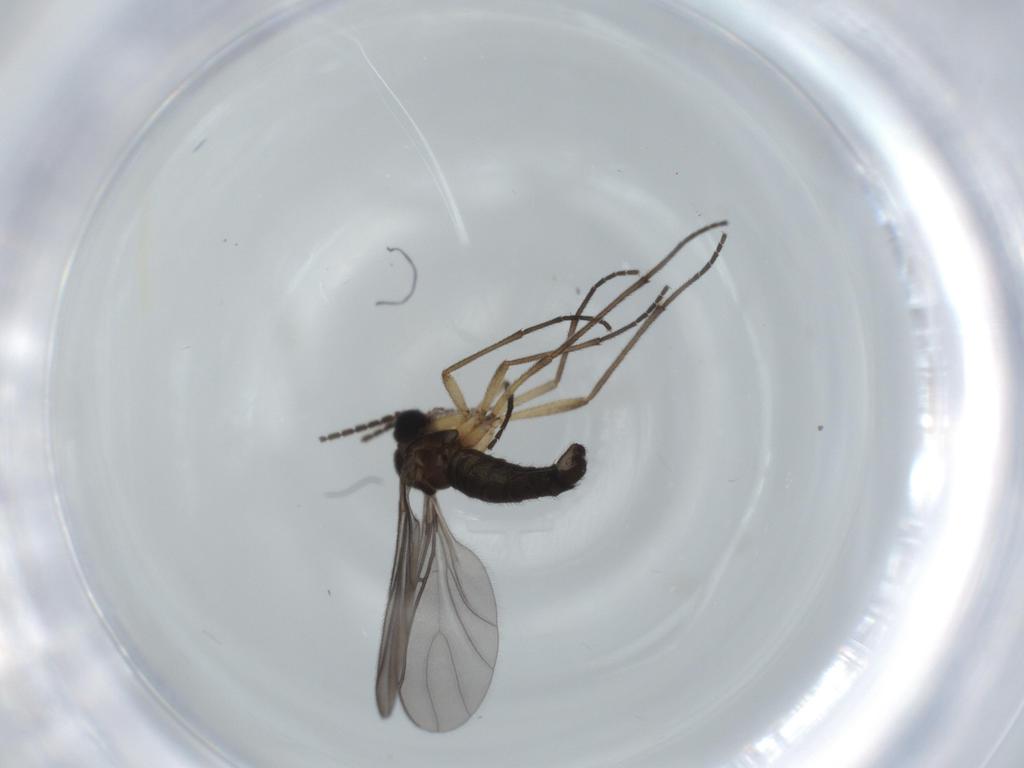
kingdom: Animalia
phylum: Arthropoda
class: Insecta
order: Diptera
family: Sciaridae
